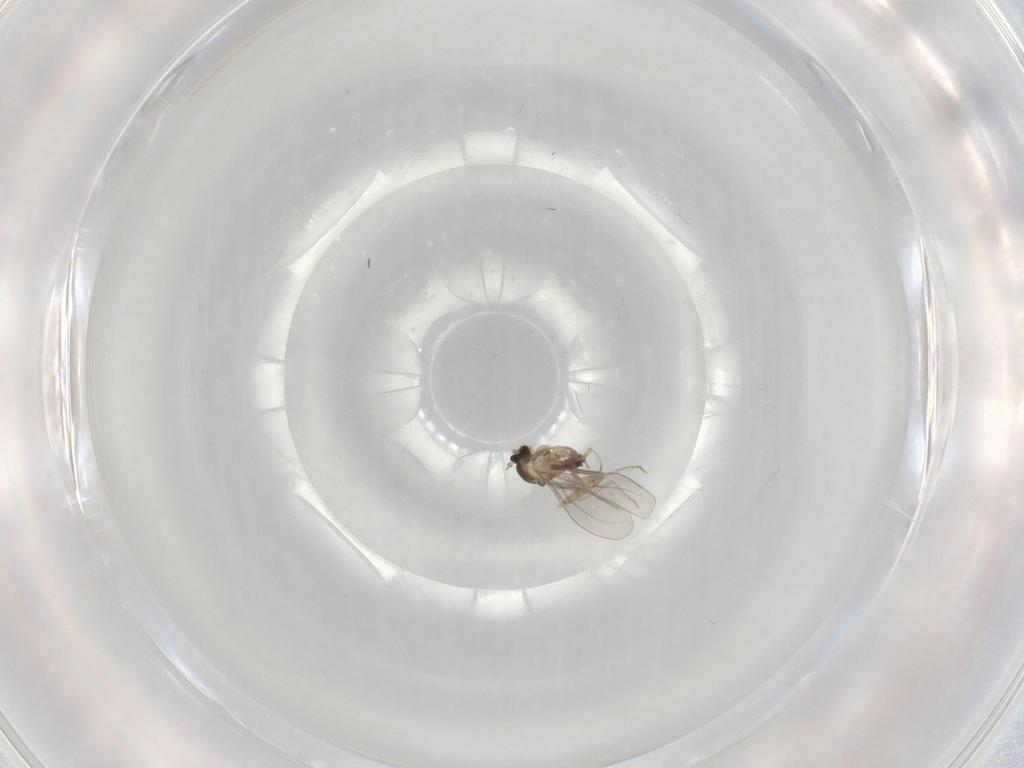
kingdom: Animalia
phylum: Arthropoda
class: Insecta
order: Diptera
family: Cecidomyiidae
